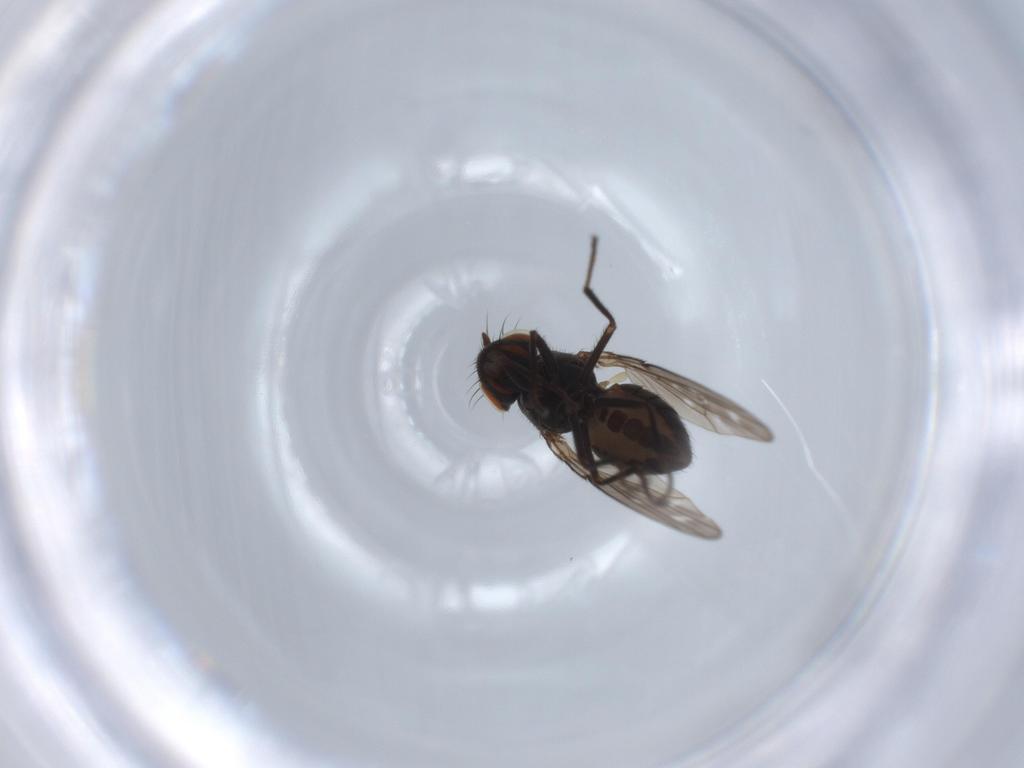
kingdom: Animalia
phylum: Arthropoda
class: Insecta
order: Diptera
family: Ephydridae
